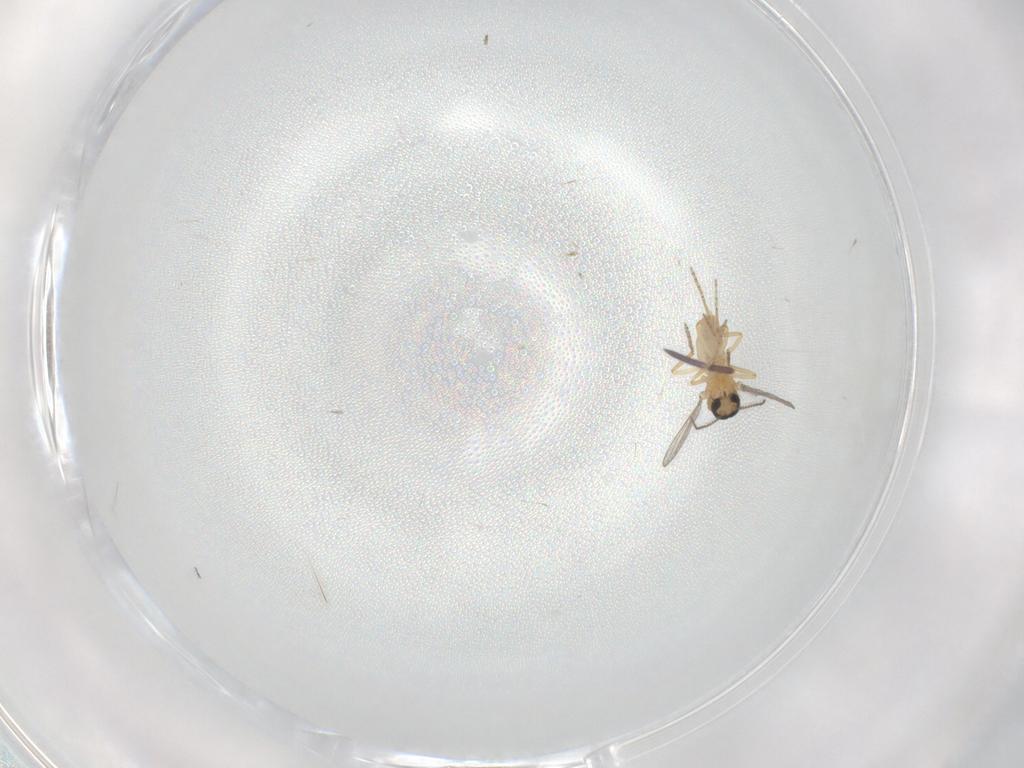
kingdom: Animalia
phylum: Arthropoda
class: Insecta
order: Diptera
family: Ceratopogonidae
